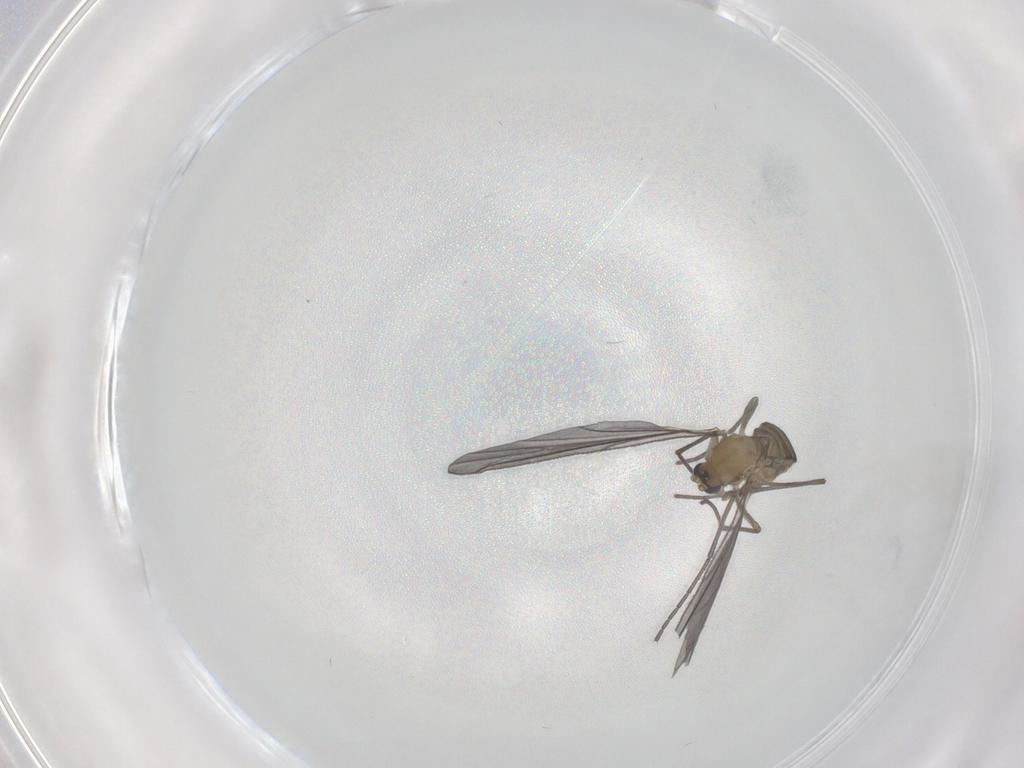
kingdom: Animalia
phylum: Arthropoda
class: Insecta
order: Diptera
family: Sciaridae
